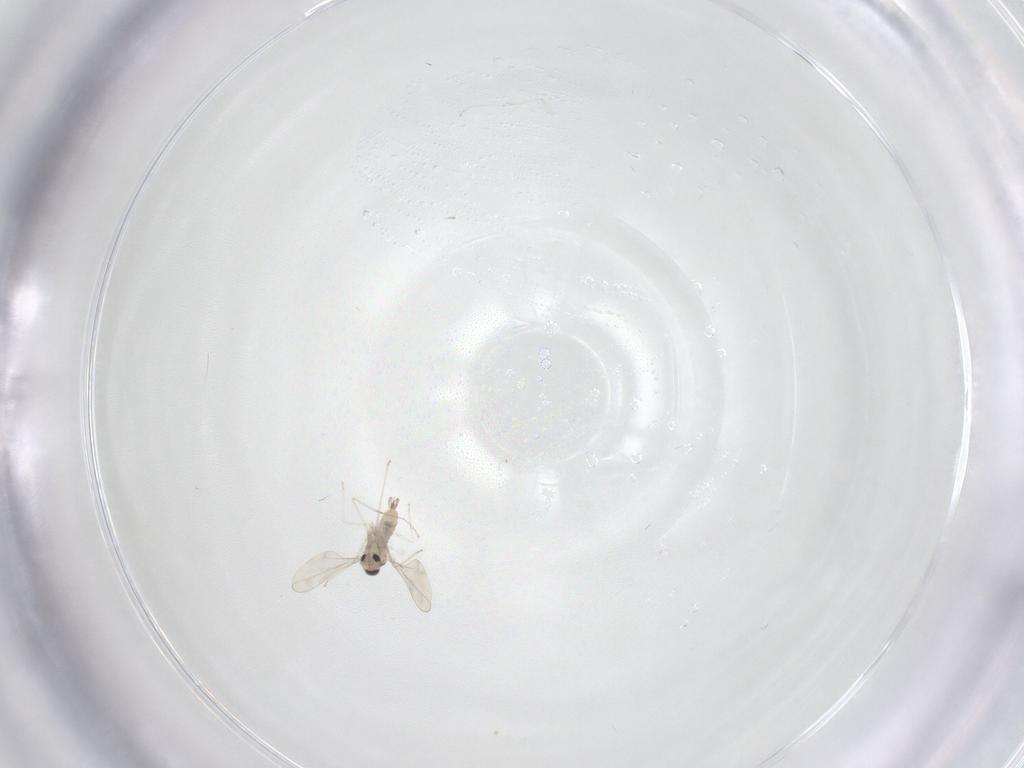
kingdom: Animalia
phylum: Arthropoda
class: Insecta
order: Diptera
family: Cecidomyiidae
